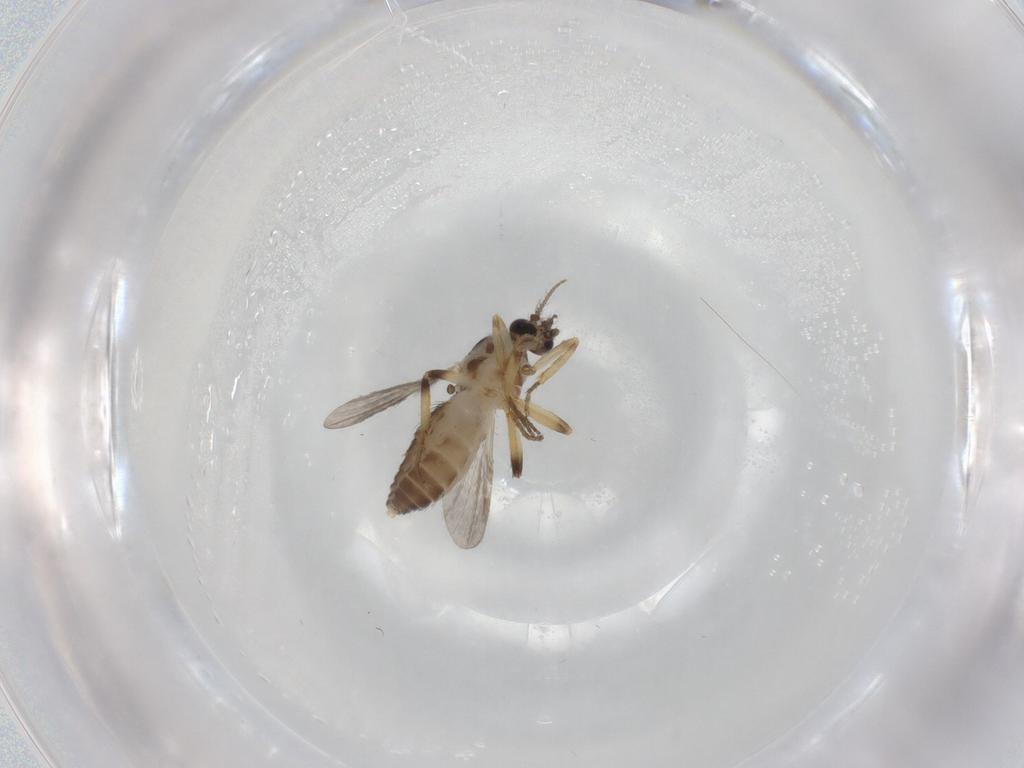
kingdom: Animalia
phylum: Arthropoda
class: Insecta
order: Diptera
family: Ceratopogonidae
